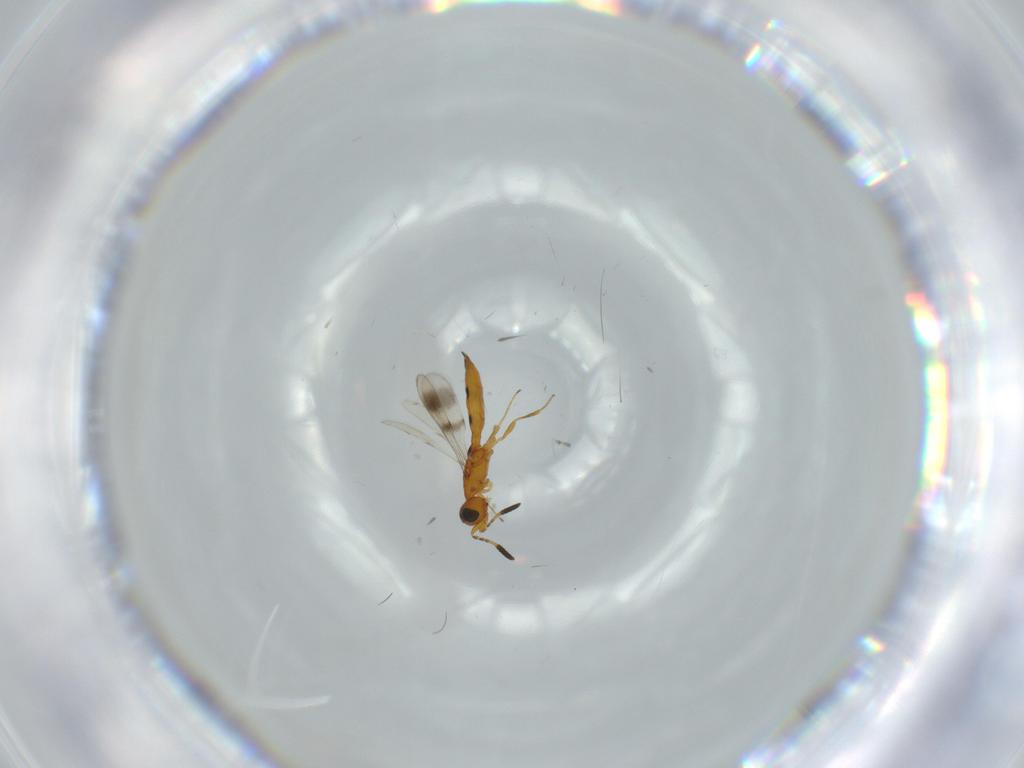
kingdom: Animalia
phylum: Arthropoda
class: Insecta
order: Hymenoptera
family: Scelionidae
